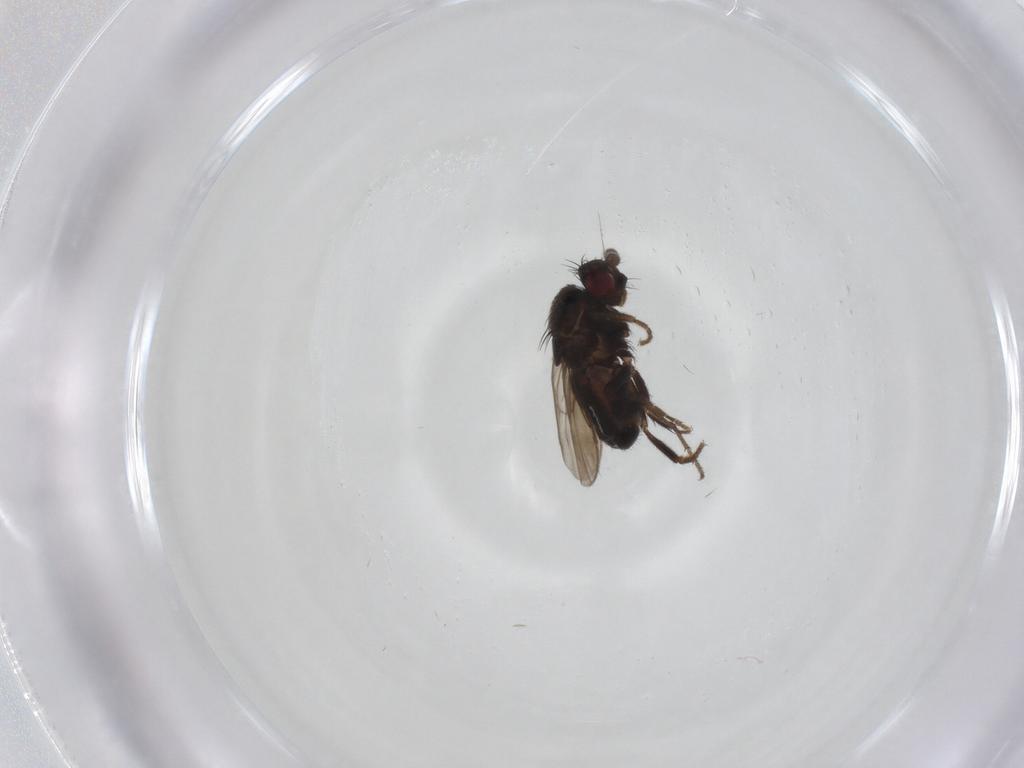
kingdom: Animalia
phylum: Arthropoda
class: Insecta
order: Diptera
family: Sphaeroceridae
